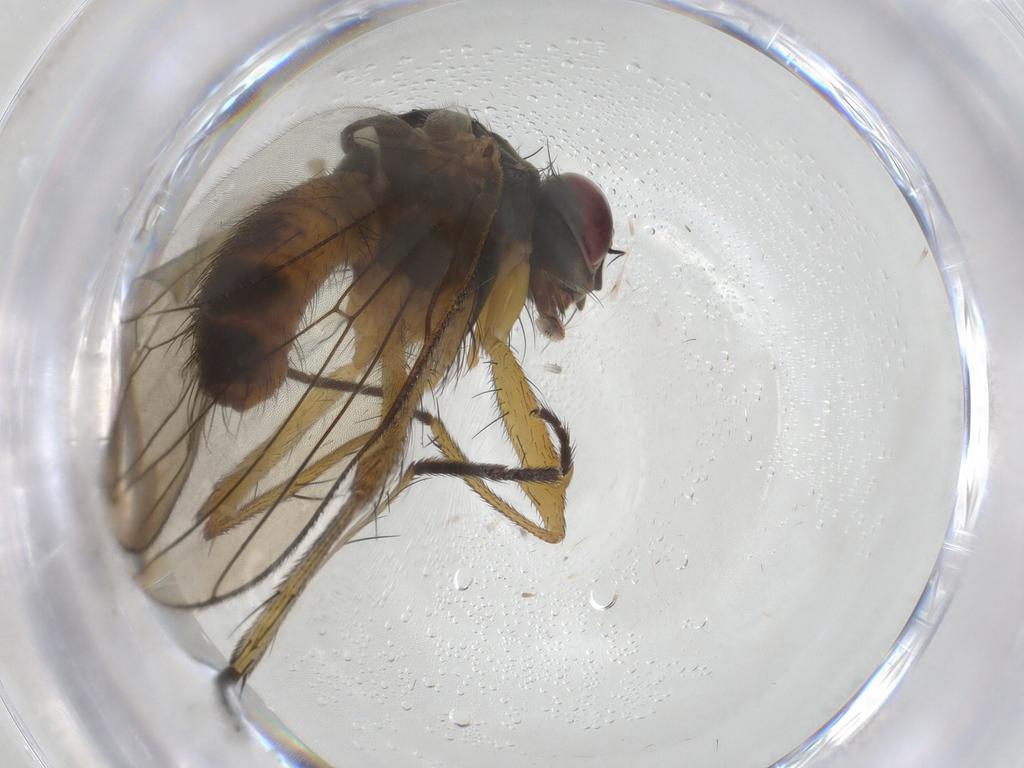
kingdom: Animalia
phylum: Arthropoda
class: Insecta
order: Diptera
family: Muscidae
